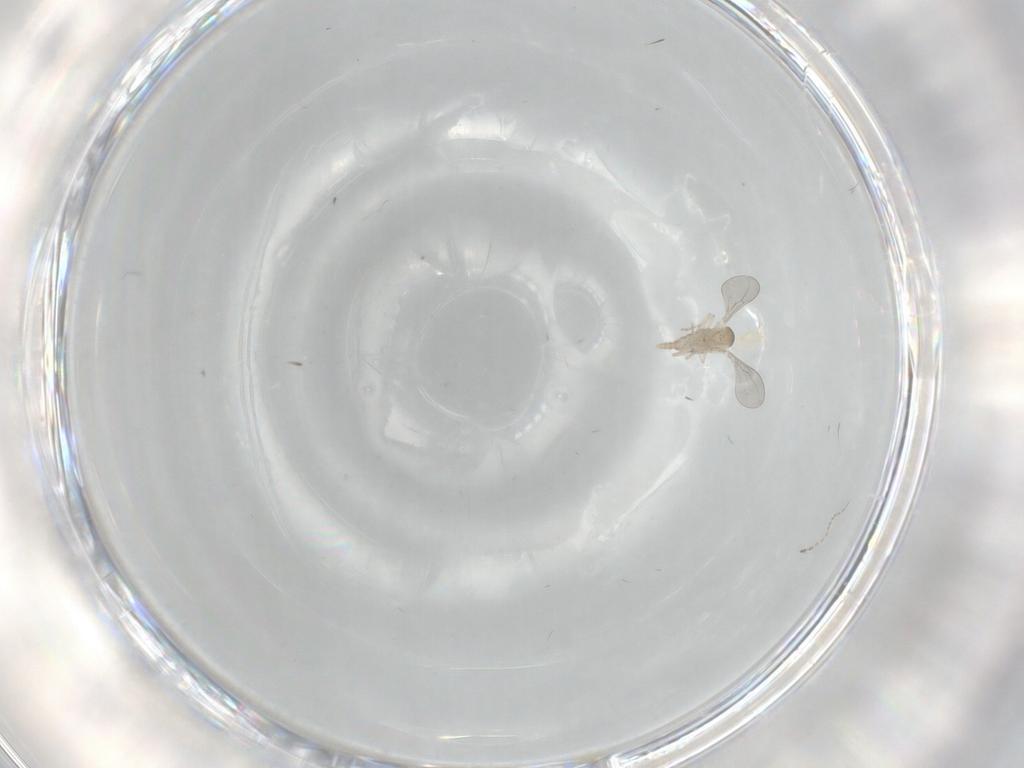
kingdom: Animalia
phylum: Arthropoda
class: Insecta
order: Diptera
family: Cecidomyiidae
